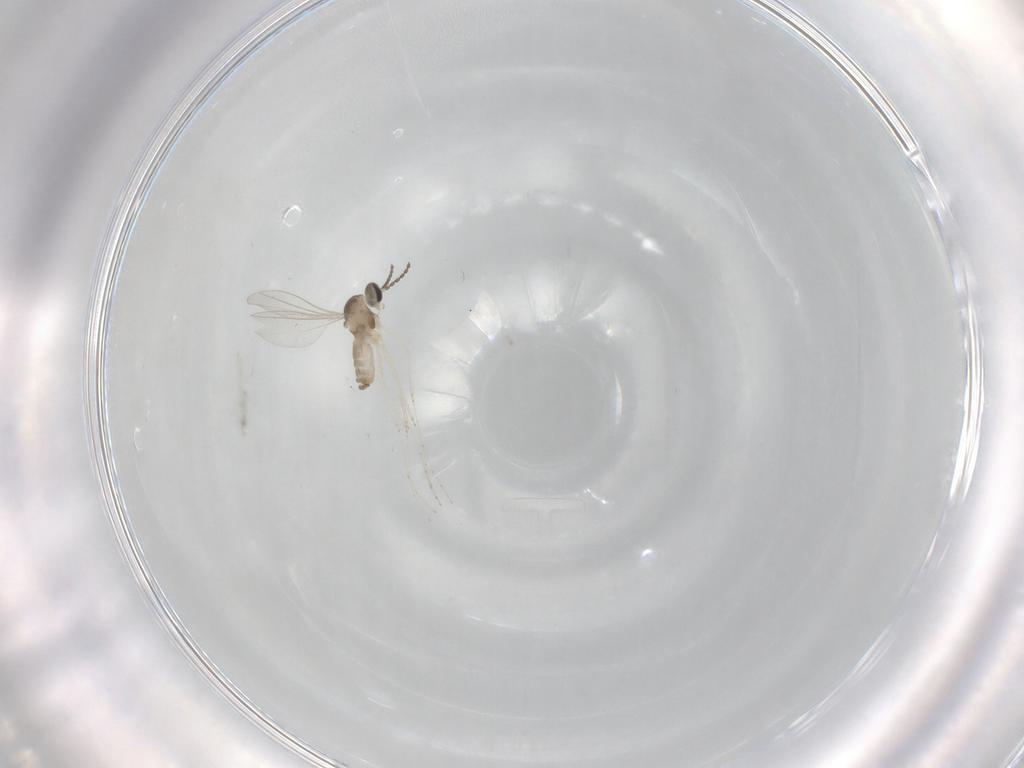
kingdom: Animalia
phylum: Arthropoda
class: Insecta
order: Diptera
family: Cecidomyiidae
